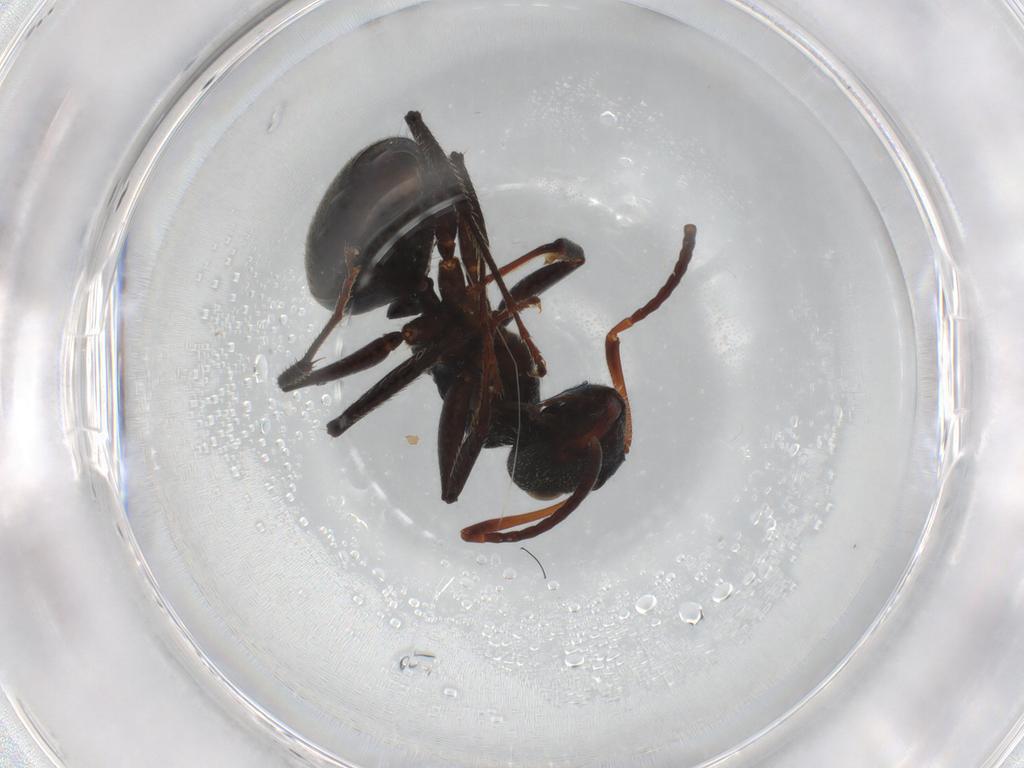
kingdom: Animalia
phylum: Arthropoda
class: Insecta
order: Hymenoptera
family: Formicidae
